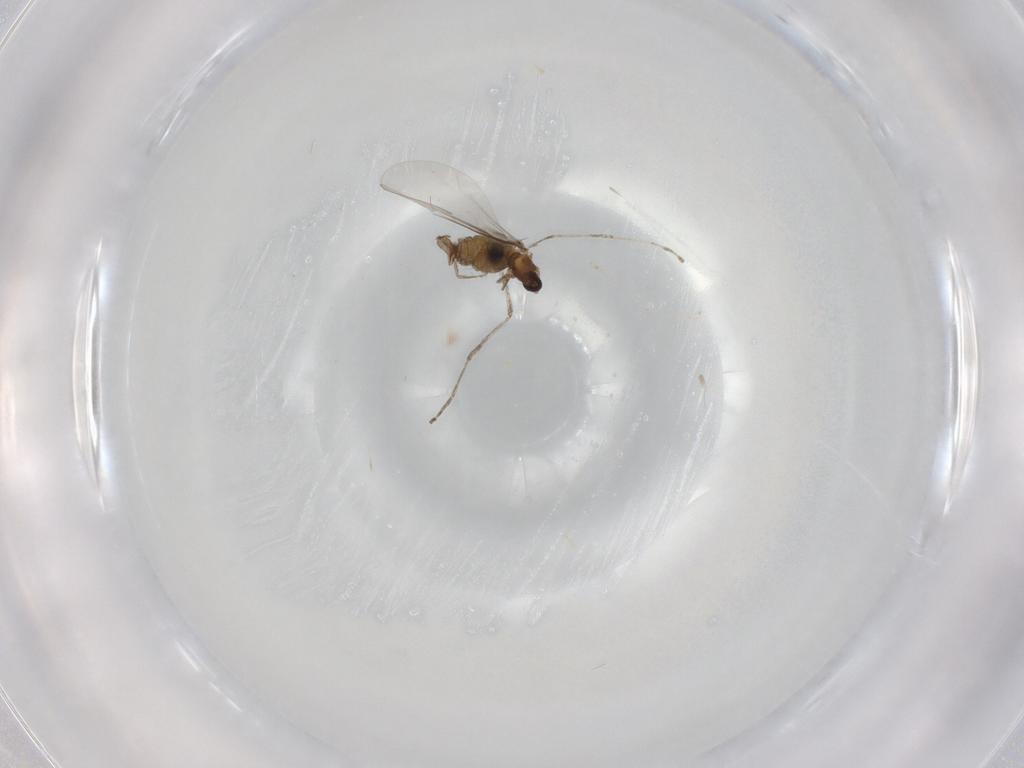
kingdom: Animalia
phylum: Arthropoda
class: Insecta
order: Diptera
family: Cecidomyiidae
